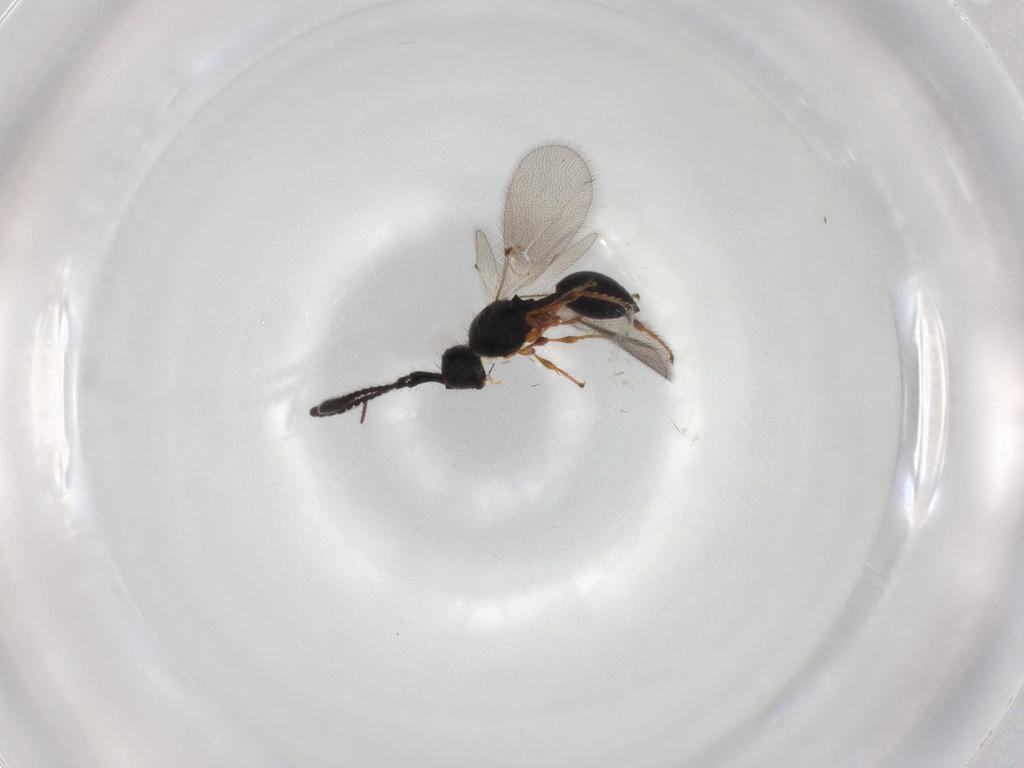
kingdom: Animalia
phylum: Arthropoda
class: Insecta
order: Hymenoptera
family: Diapriidae
